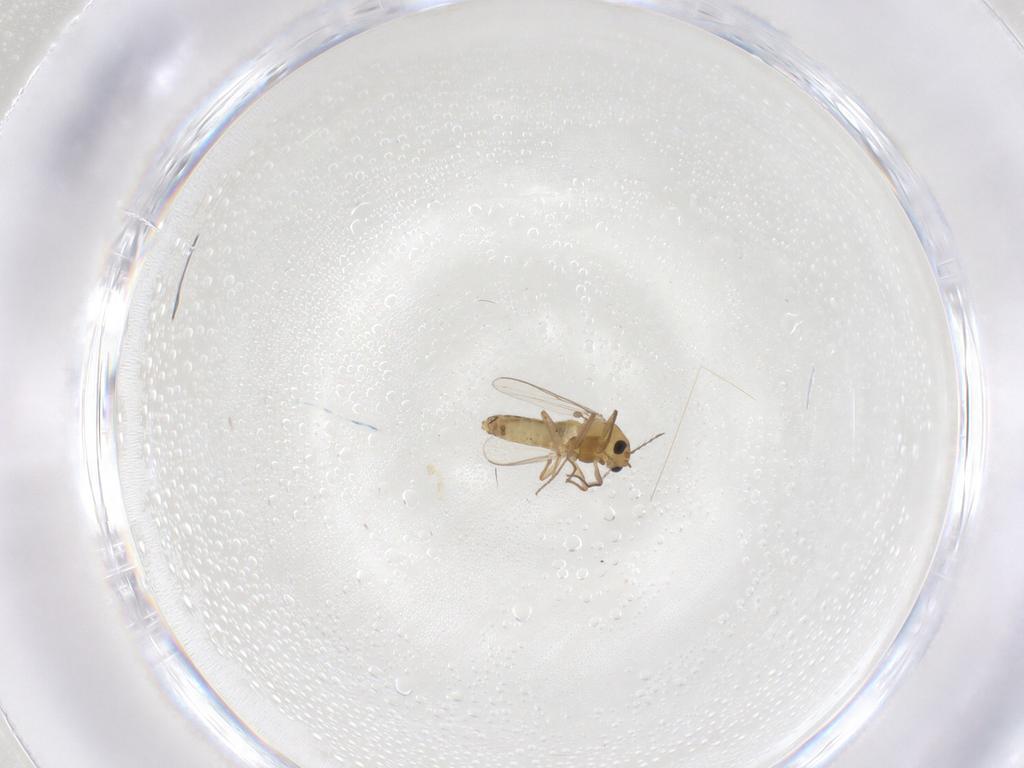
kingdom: Animalia
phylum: Arthropoda
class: Insecta
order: Diptera
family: Chironomidae
